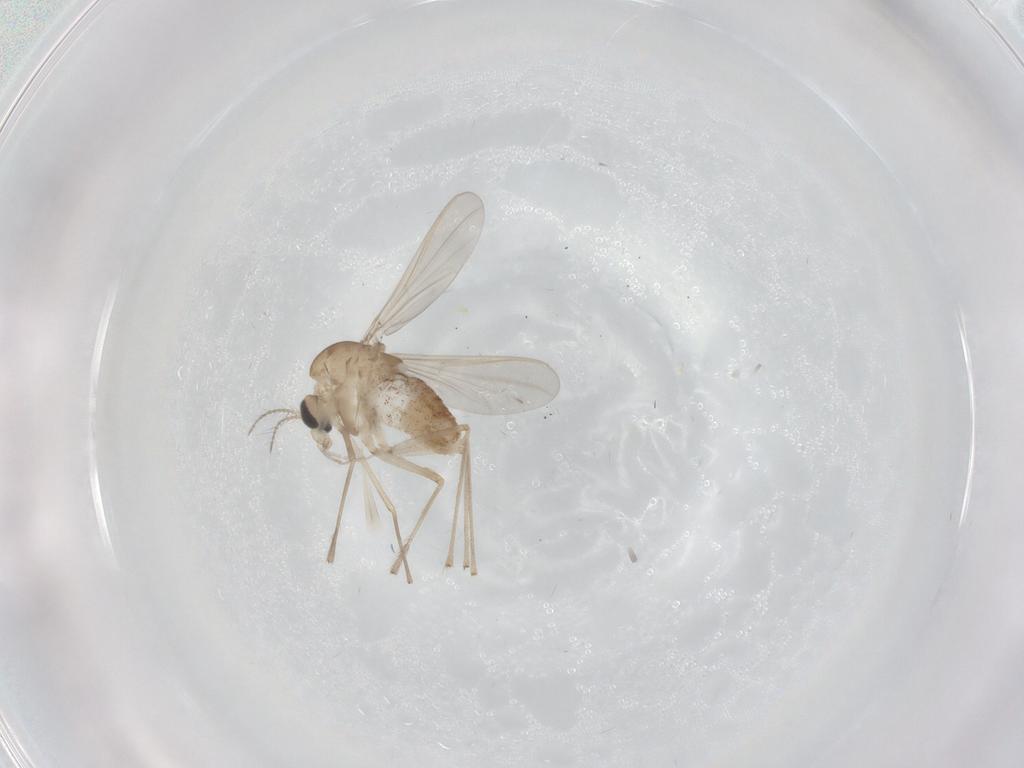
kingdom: Animalia
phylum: Arthropoda
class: Insecta
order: Diptera
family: Chironomidae
